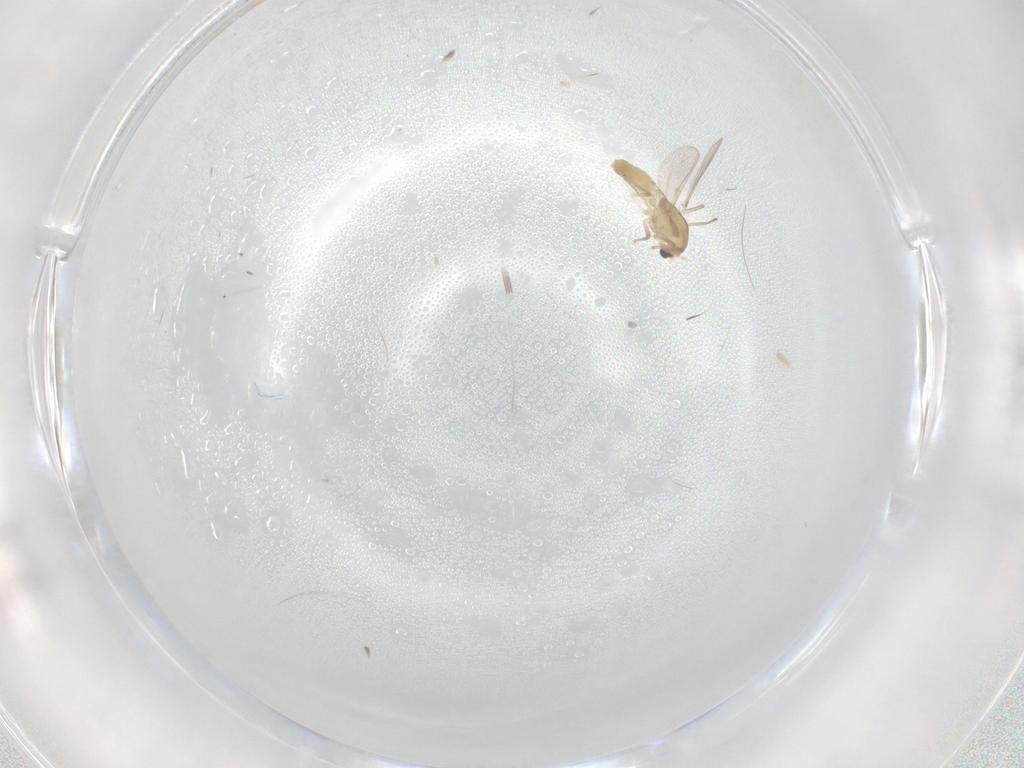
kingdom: Animalia
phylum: Arthropoda
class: Insecta
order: Diptera
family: Chironomidae
